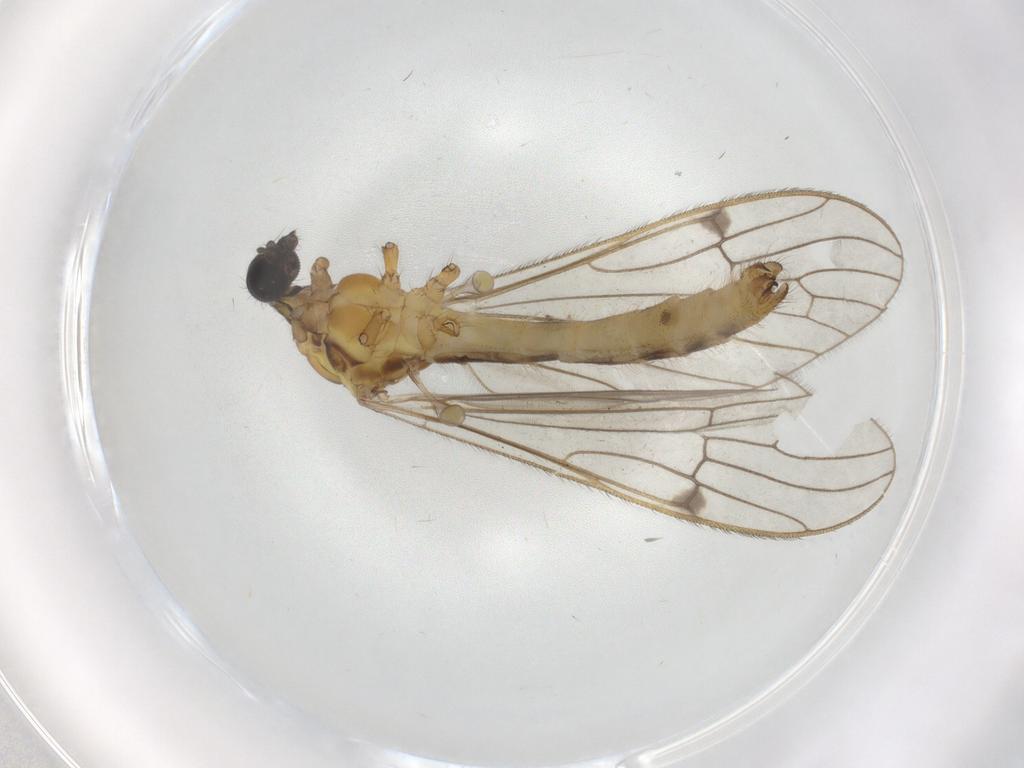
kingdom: Animalia
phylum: Arthropoda
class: Insecta
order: Diptera
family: Limoniidae
